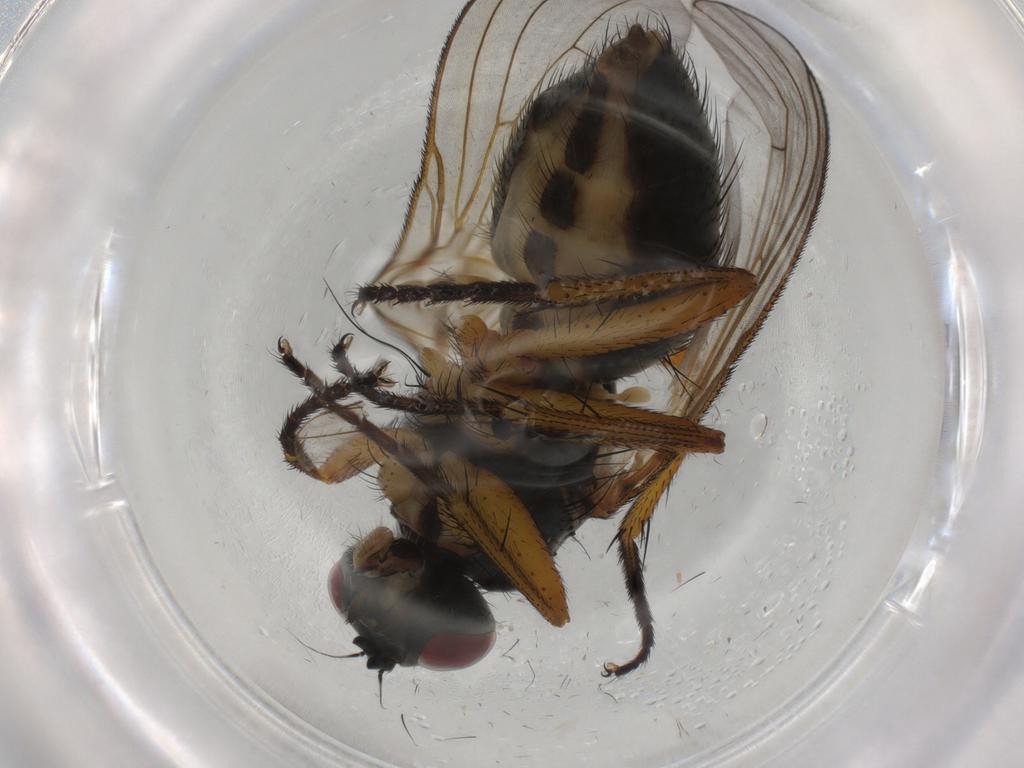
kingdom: Animalia
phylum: Arthropoda
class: Insecta
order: Diptera
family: Muscidae
